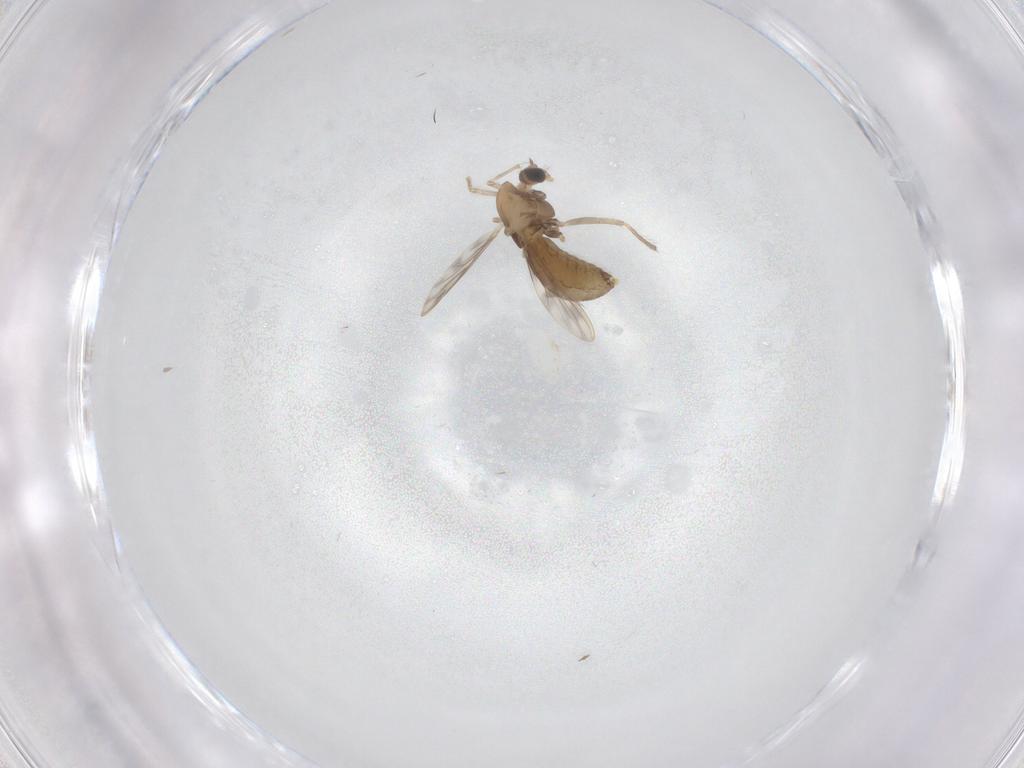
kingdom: Animalia
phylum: Arthropoda
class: Insecta
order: Diptera
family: Chironomidae
